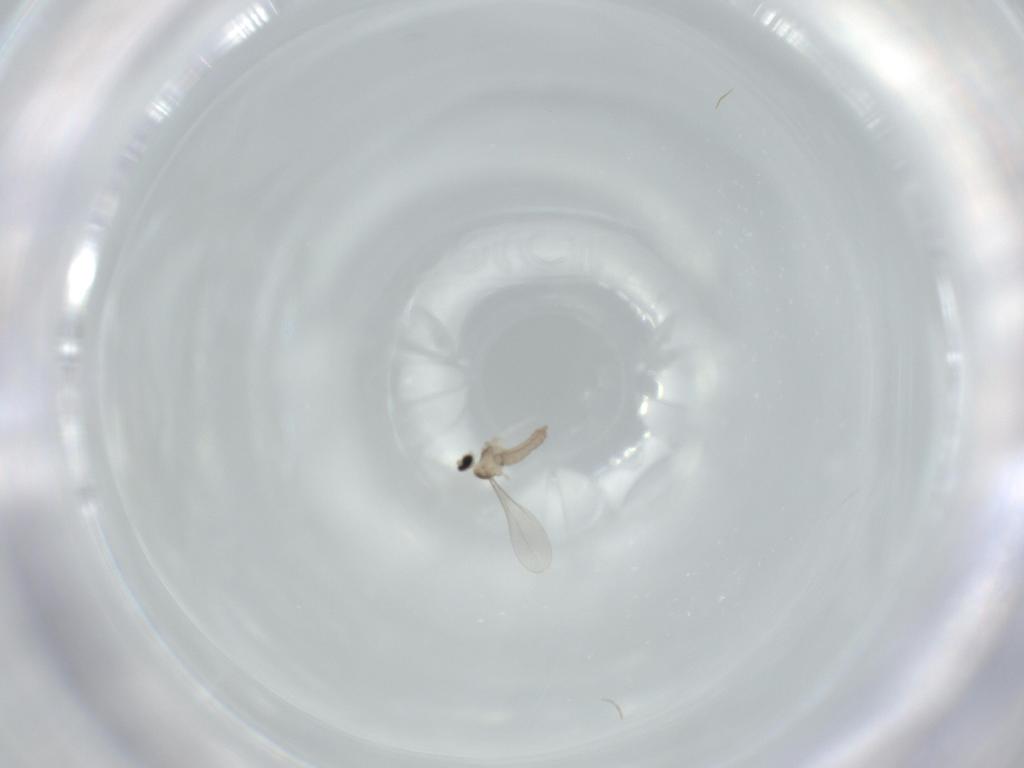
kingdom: Animalia
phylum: Arthropoda
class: Insecta
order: Diptera
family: Cecidomyiidae
